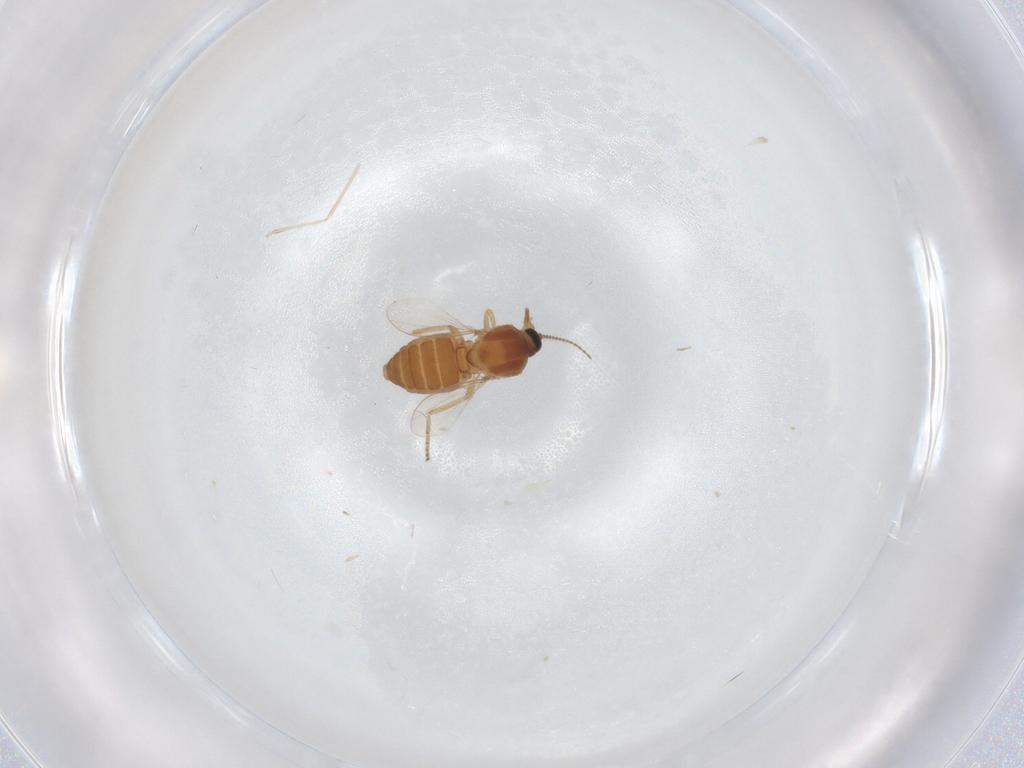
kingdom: Animalia
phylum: Arthropoda
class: Insecta
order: Diptera
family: Ceratopogonidae
